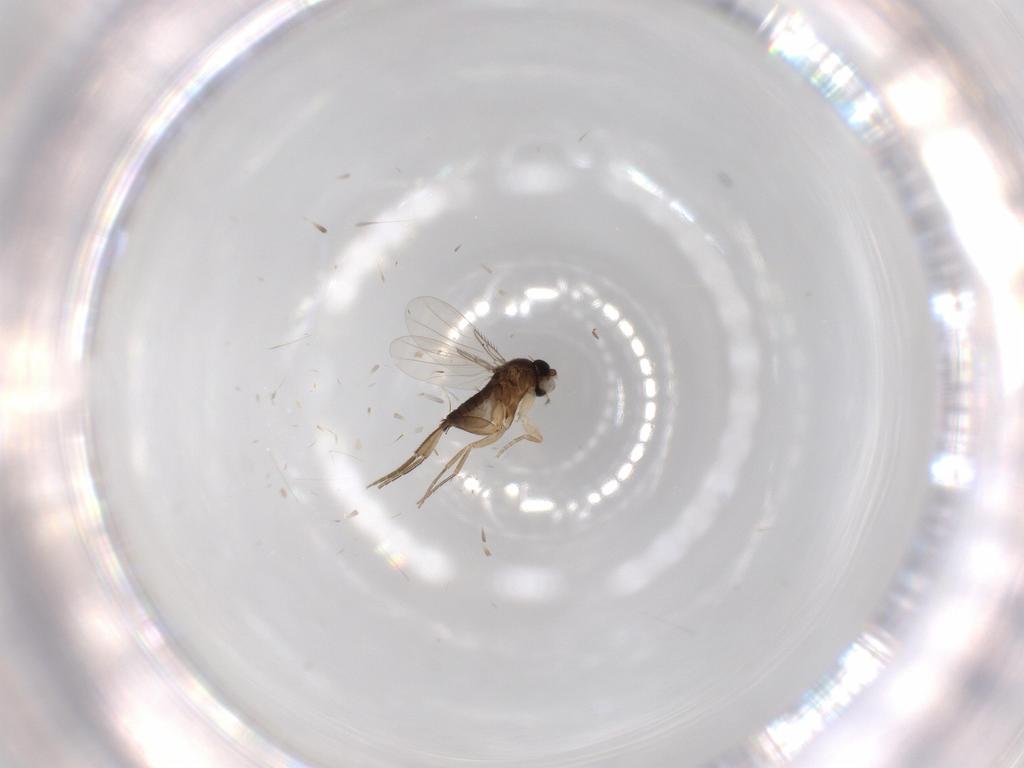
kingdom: Animalia
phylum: Arthropoda
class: Insecta
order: Diptera
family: Phoridae
